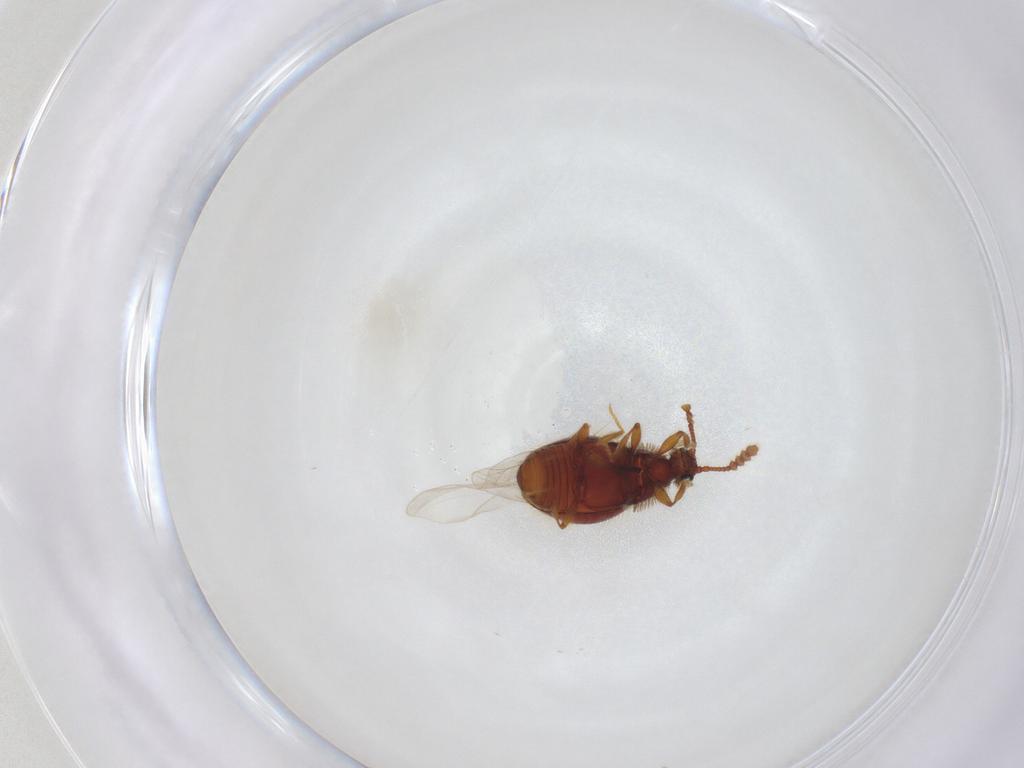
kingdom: Animalia
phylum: Arthropoda
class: Insecta
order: Coleoptera
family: Staphylinidae
